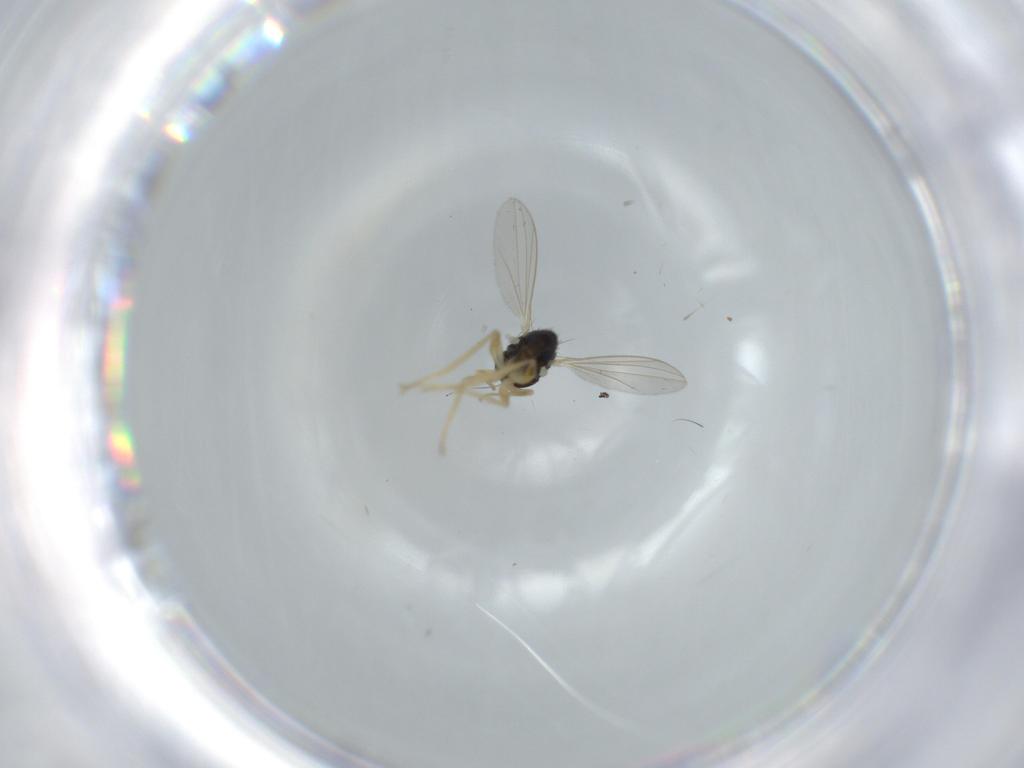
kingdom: Animalia
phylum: Arthropoda
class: Insecta
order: Diptera
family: Dolichopodidae
